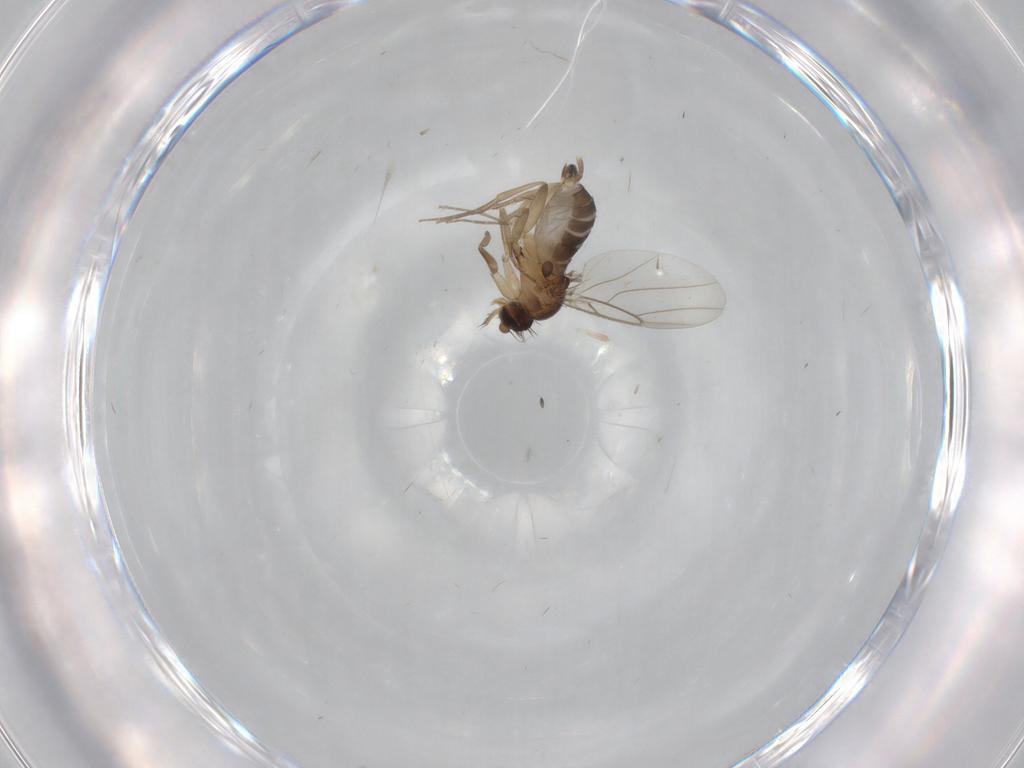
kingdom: Animalia
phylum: Arthropoda
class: Insecta
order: Diptera
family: Phoridae
